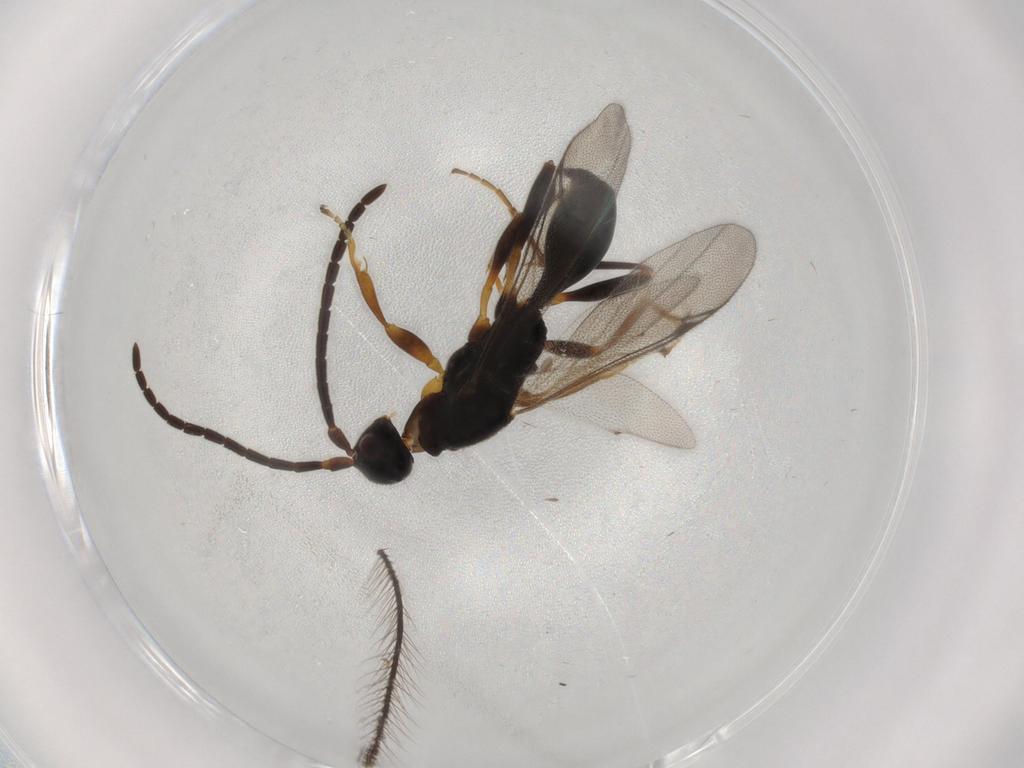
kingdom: Animalia
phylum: Arthropoda
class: Insecta
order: Hymenoptera
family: Proctotrupidae
